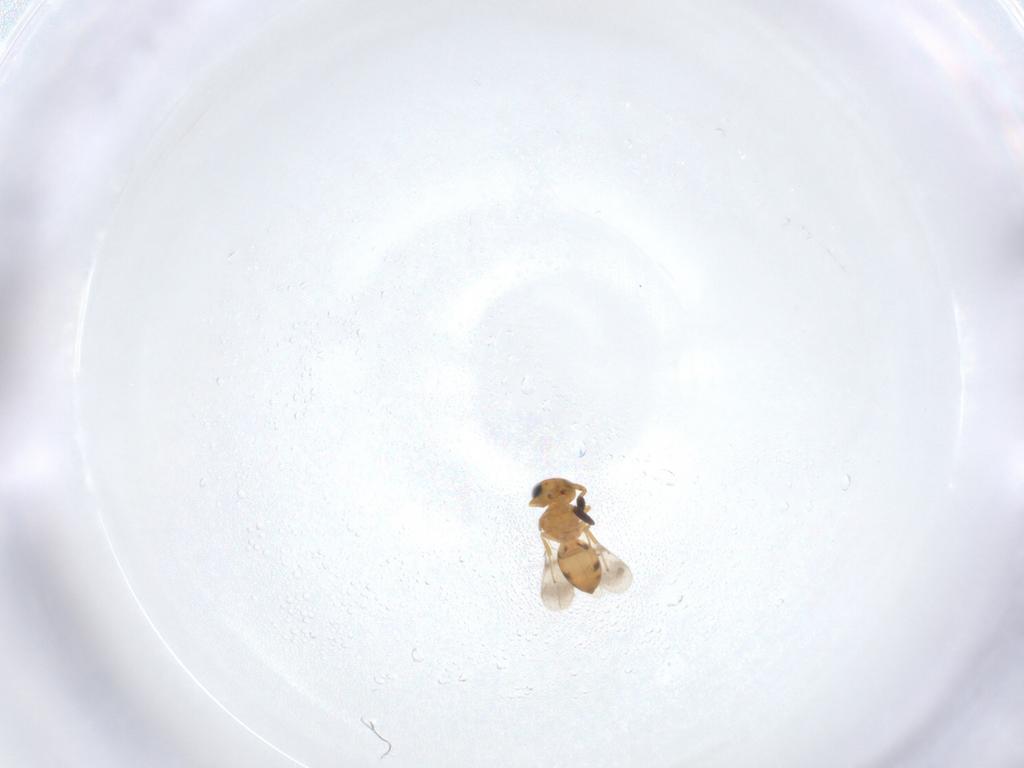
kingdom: Animalia
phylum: Arthropoda
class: Insecta
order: Hymenoptera
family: Scelionidae
